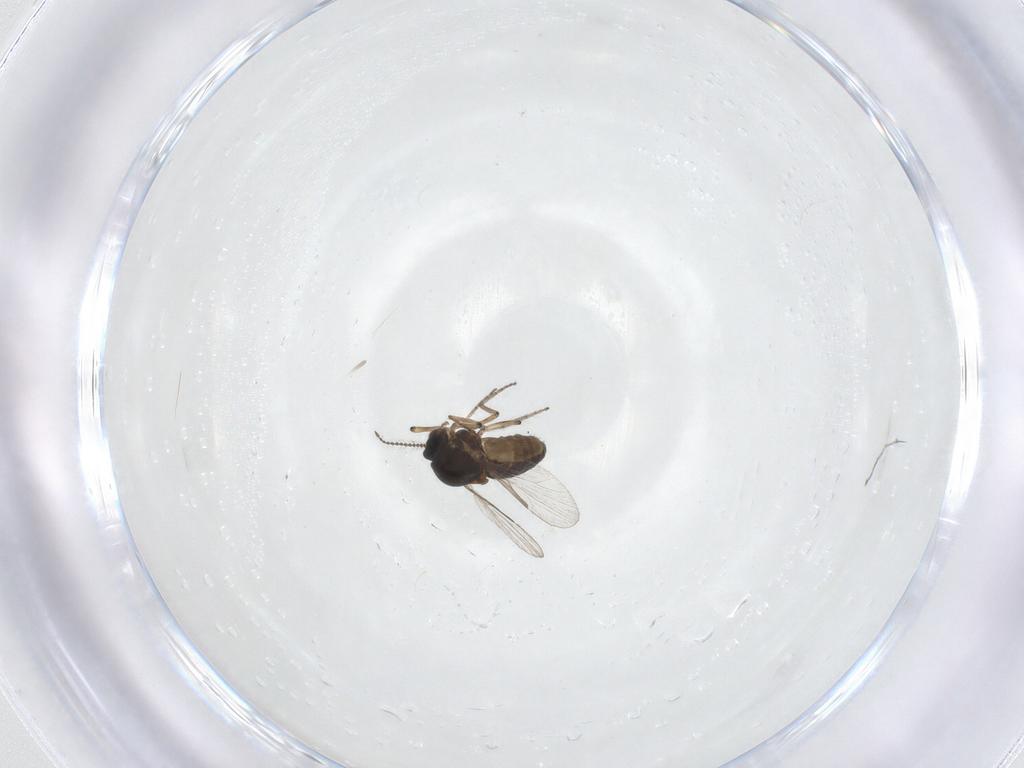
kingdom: Animalia
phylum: Arthropoda
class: Insecta
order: Diptera
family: Ceratopogonidae
